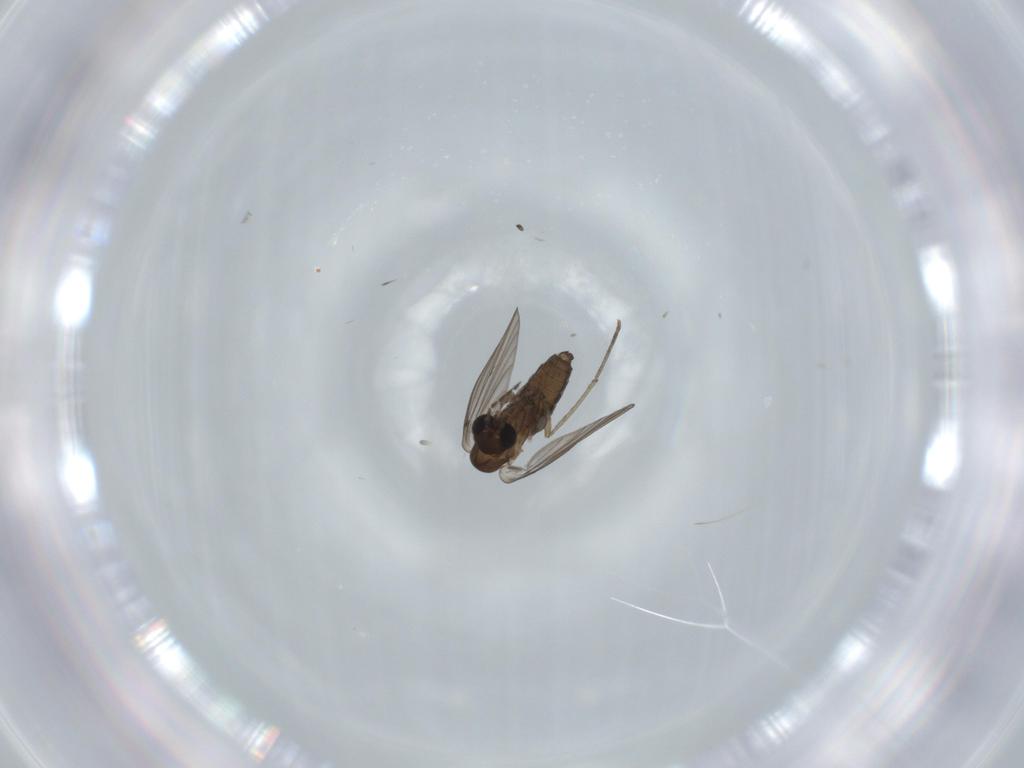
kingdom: Animalia
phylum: Arthropoda
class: Insecta
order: Diptera
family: Psychodidae
